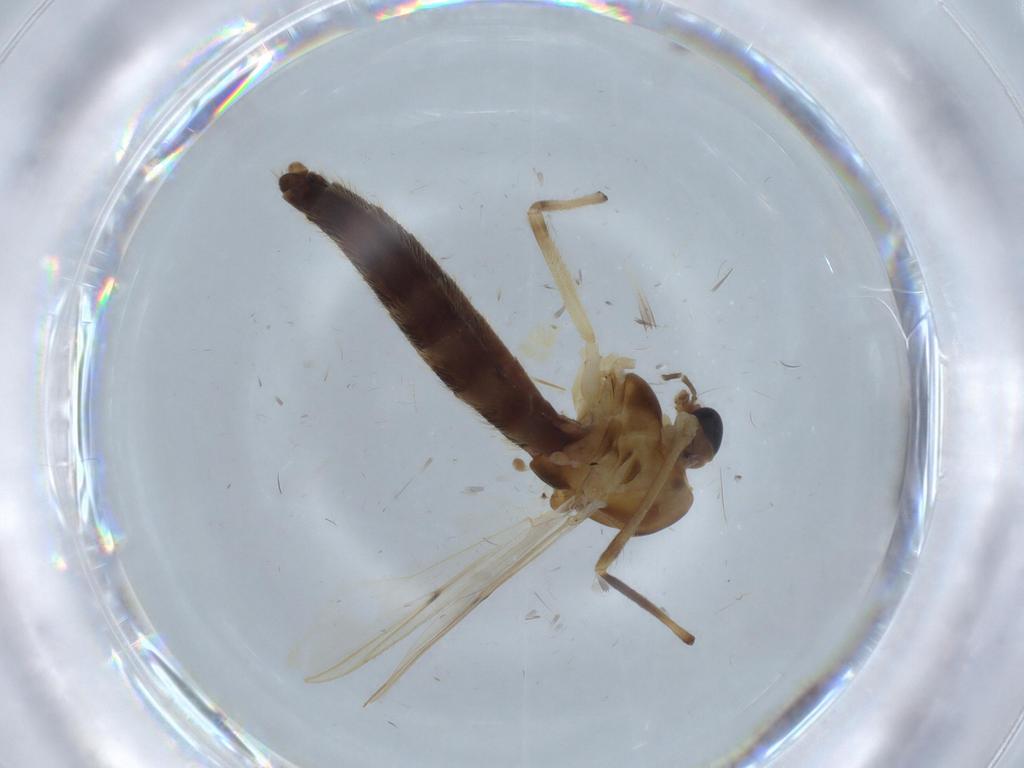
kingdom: Animalia
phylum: Arthropoda
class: Insecta
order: Diptera
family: Chironomidae
